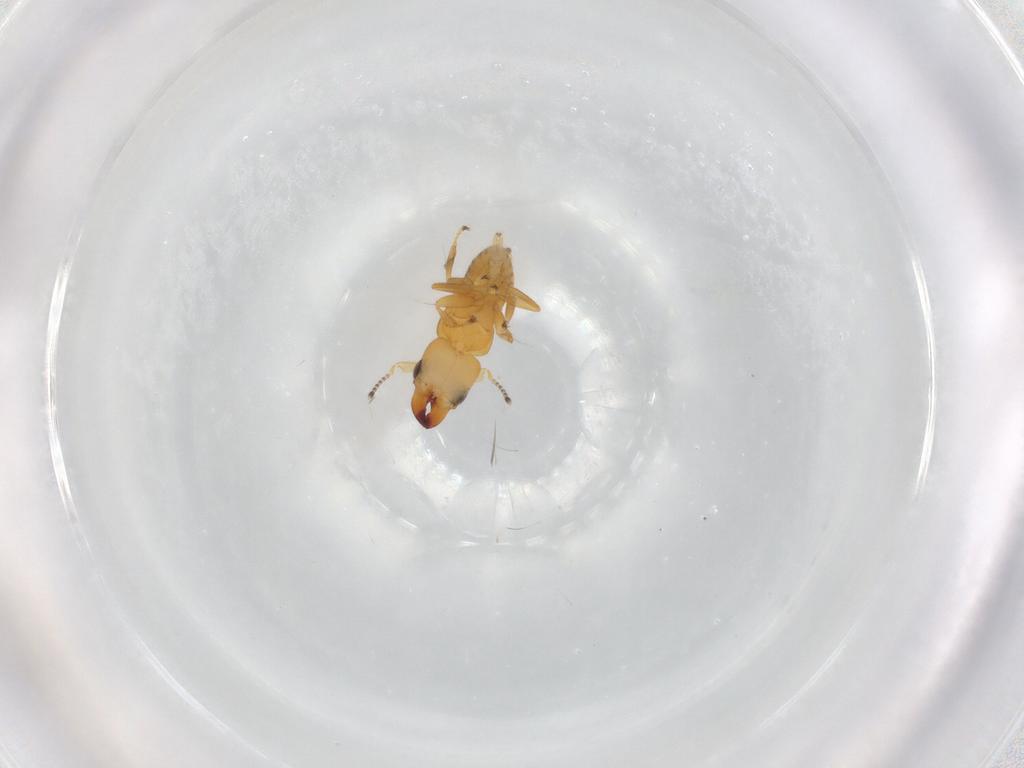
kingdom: Animalia
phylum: Arthropoda
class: Insecta
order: Hymenoptera
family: Pteromalidae
